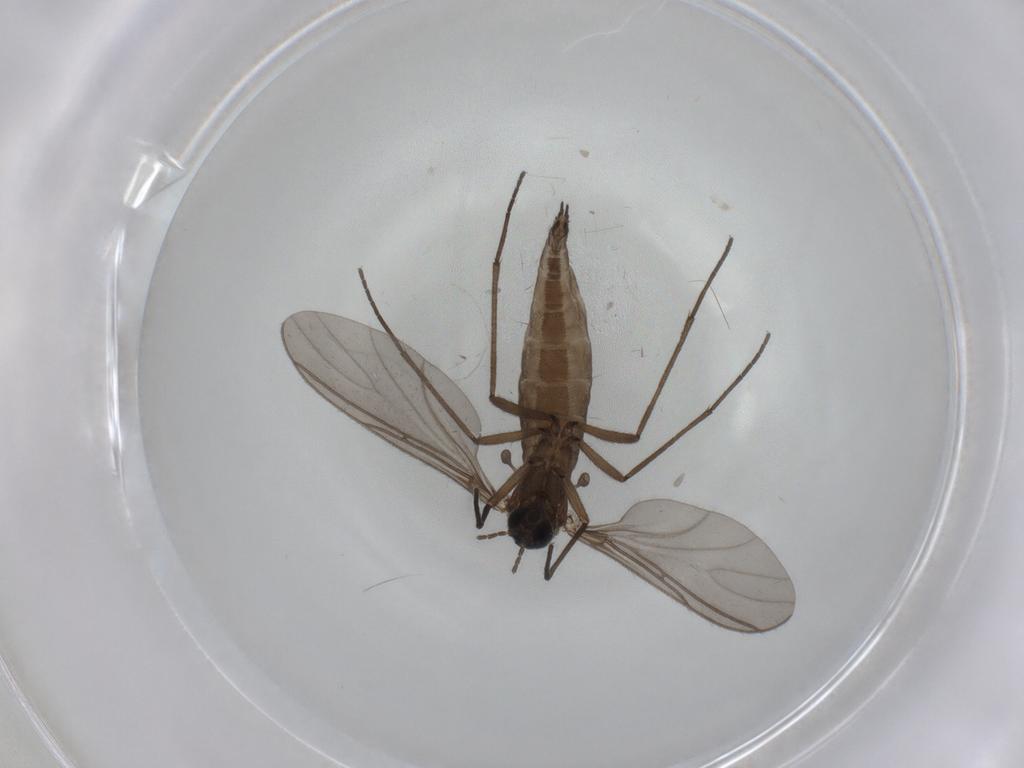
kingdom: Animalia
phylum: Arthropoda
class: Insecta
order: Diptera
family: Sciaridae
